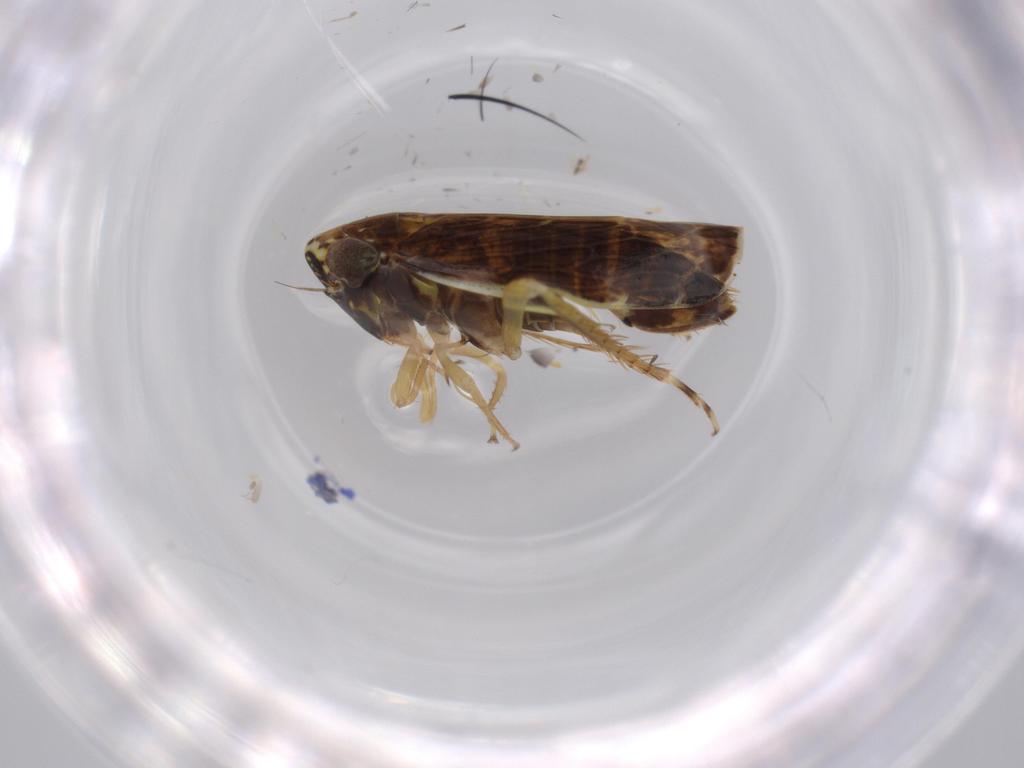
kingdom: Animalia
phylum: Arthropoda
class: Insecta
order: Hemiptera
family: Cicadellidae
